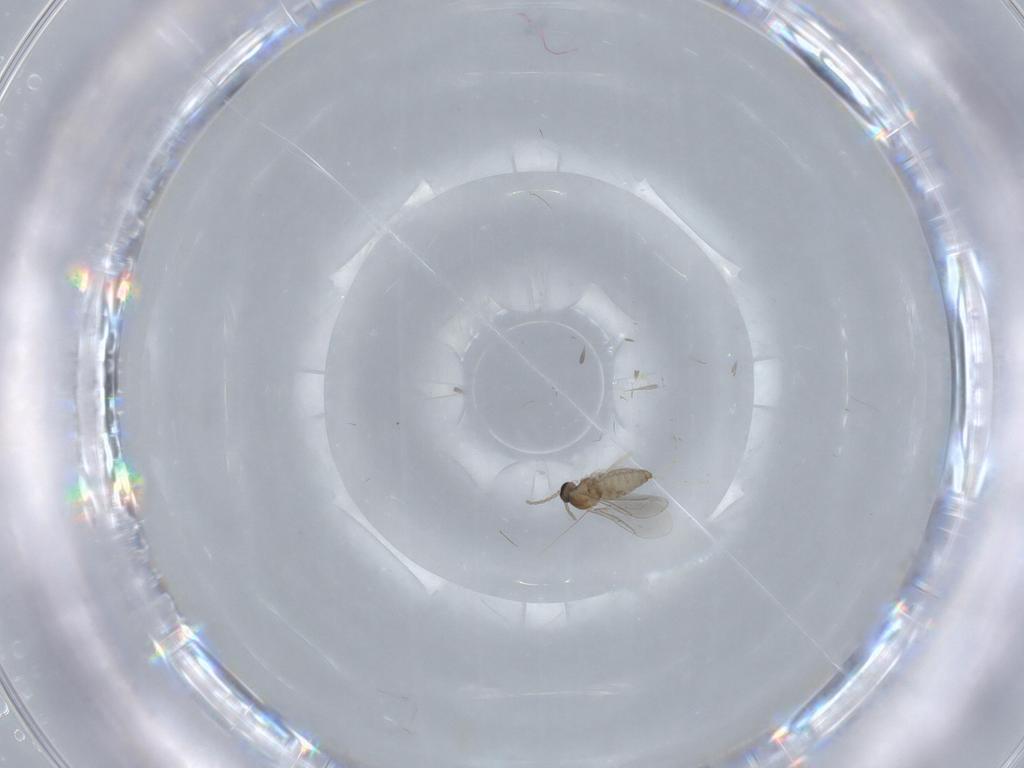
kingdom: Animalia
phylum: Arthropoda
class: Insecta
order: Diptera
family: Cecidomyiidae
